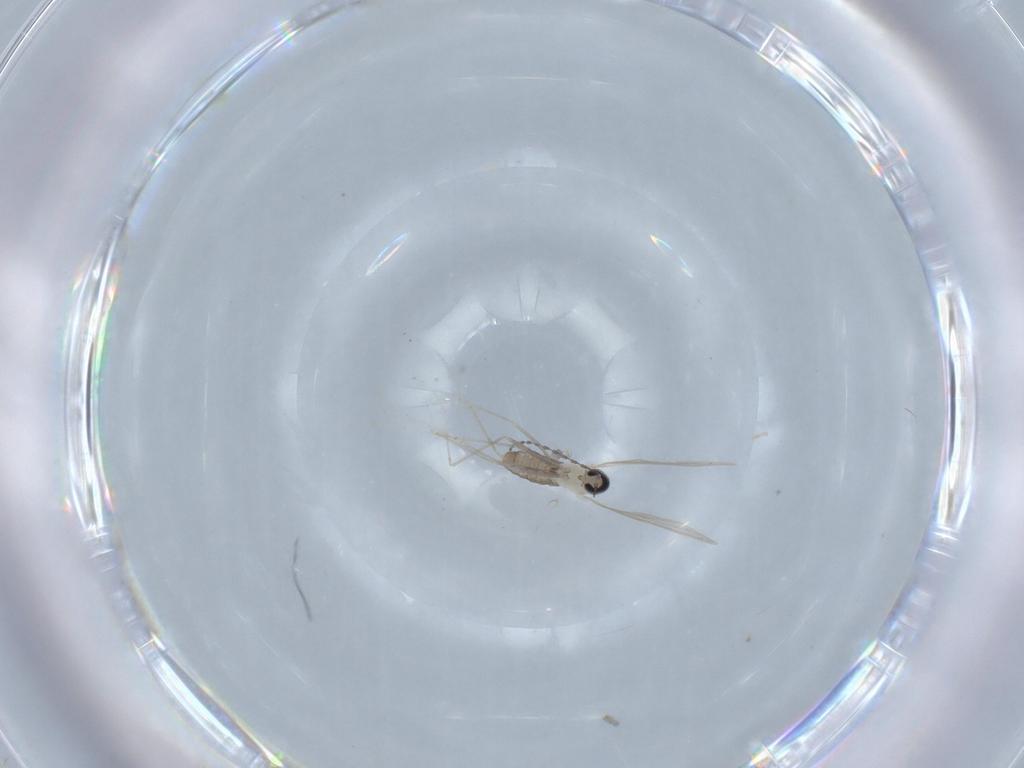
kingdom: Animalia
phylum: Arthropoda
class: Insecta
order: Diptera
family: Cecidomyiidae
